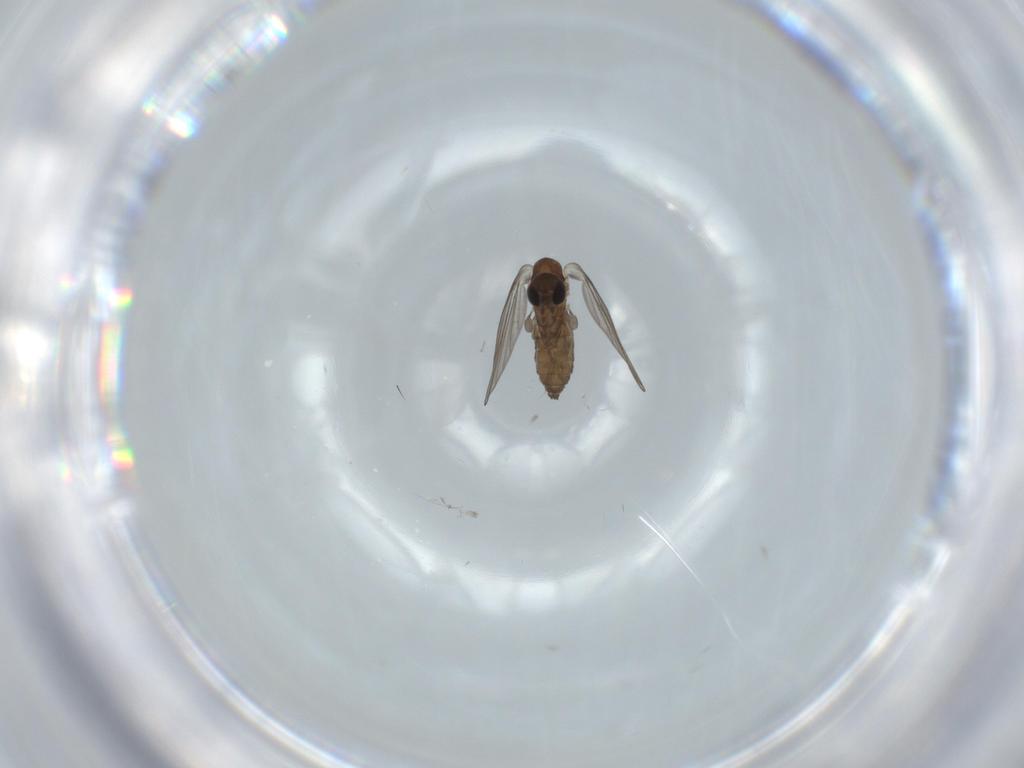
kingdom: Animalia
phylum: Arthropoda
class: Insecta
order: Diptera
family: Psychodidae
